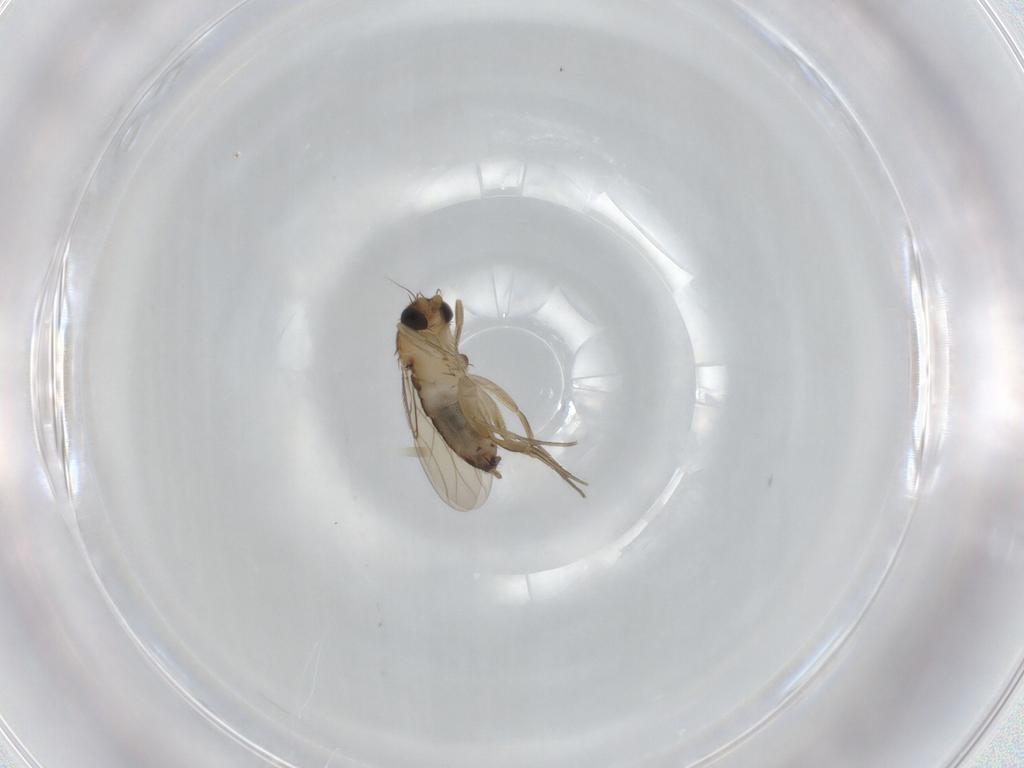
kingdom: Animalia
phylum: Arthropoda
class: Insecta
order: Diptera
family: Phoridae
